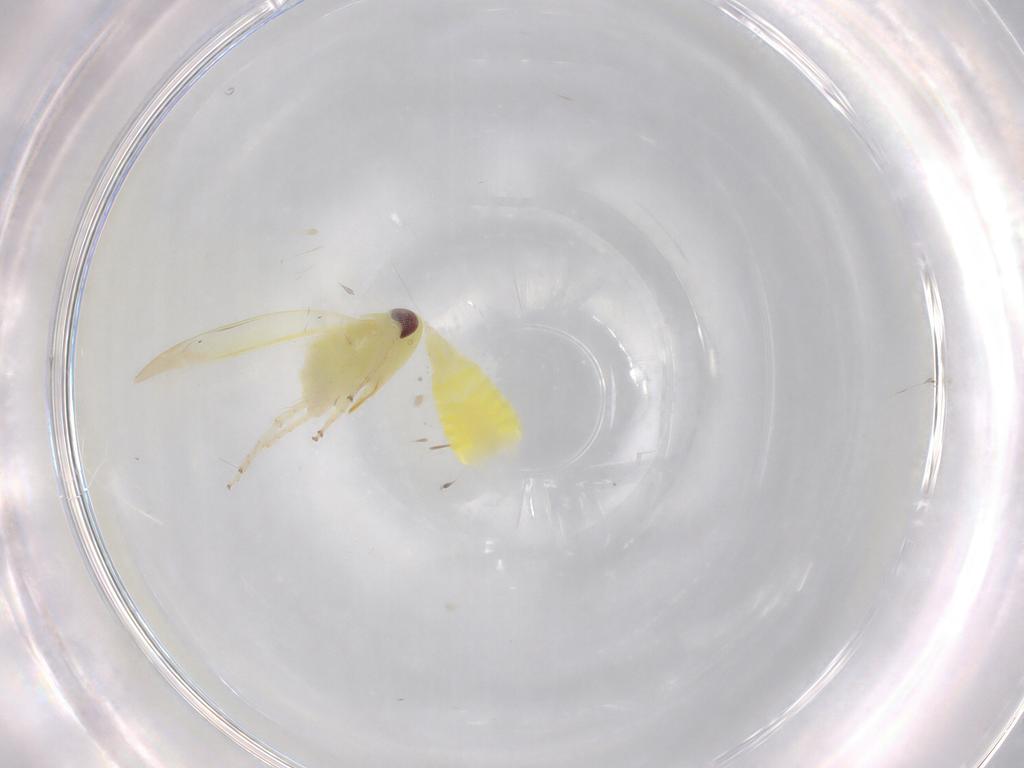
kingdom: Animalia
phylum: Arthropoda
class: Insecta
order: Hemiptera
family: Cicadellidae
